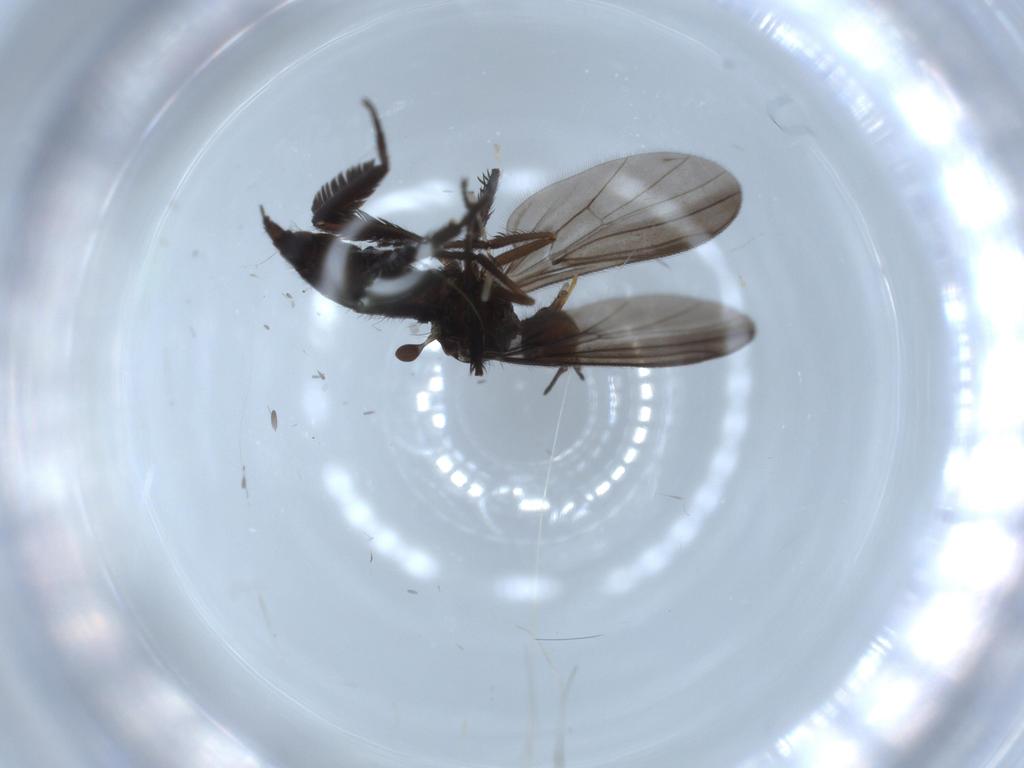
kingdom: Animalia
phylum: Arthropoda
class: Insecta
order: Diptera
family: Empididae
